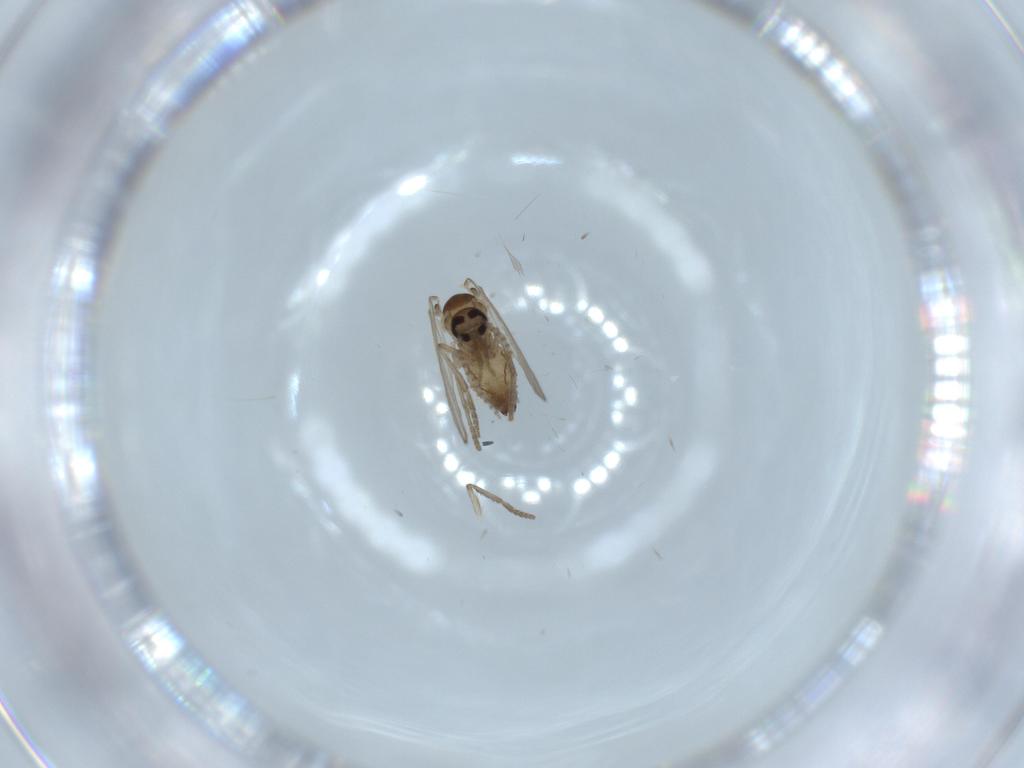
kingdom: Animalia
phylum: Arthropoda
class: Insecta
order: Diptera
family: Psychodidae
